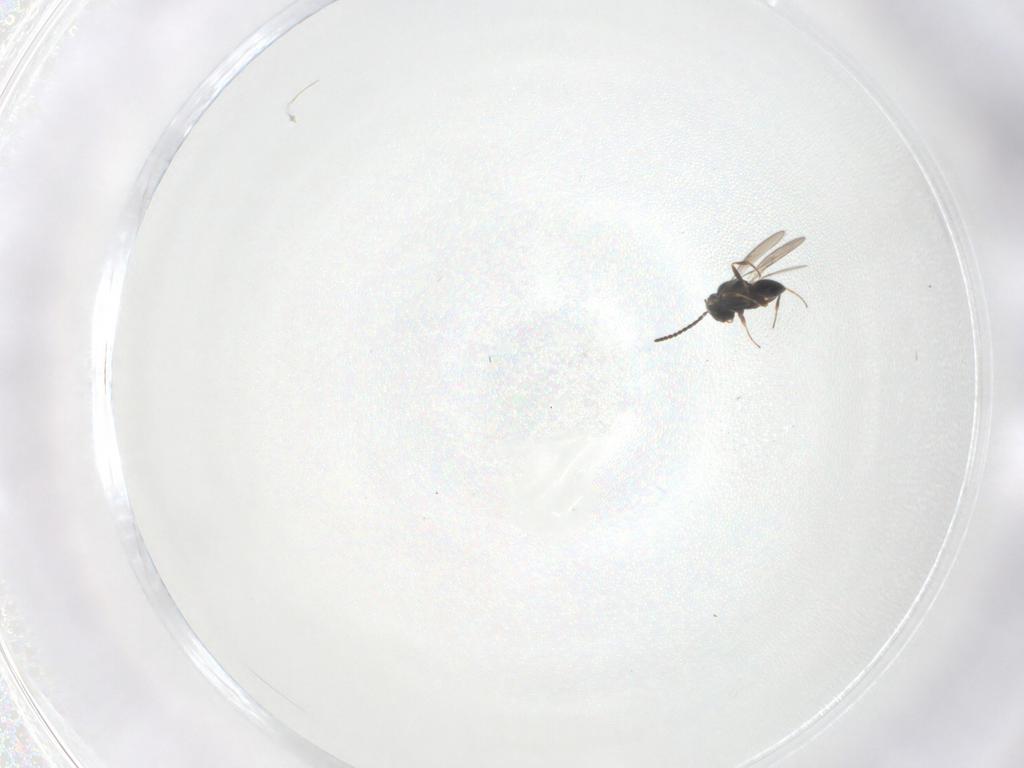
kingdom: Animalia
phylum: Arthropoda
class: Insecta
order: Hymenoptera
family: Scelionidae
